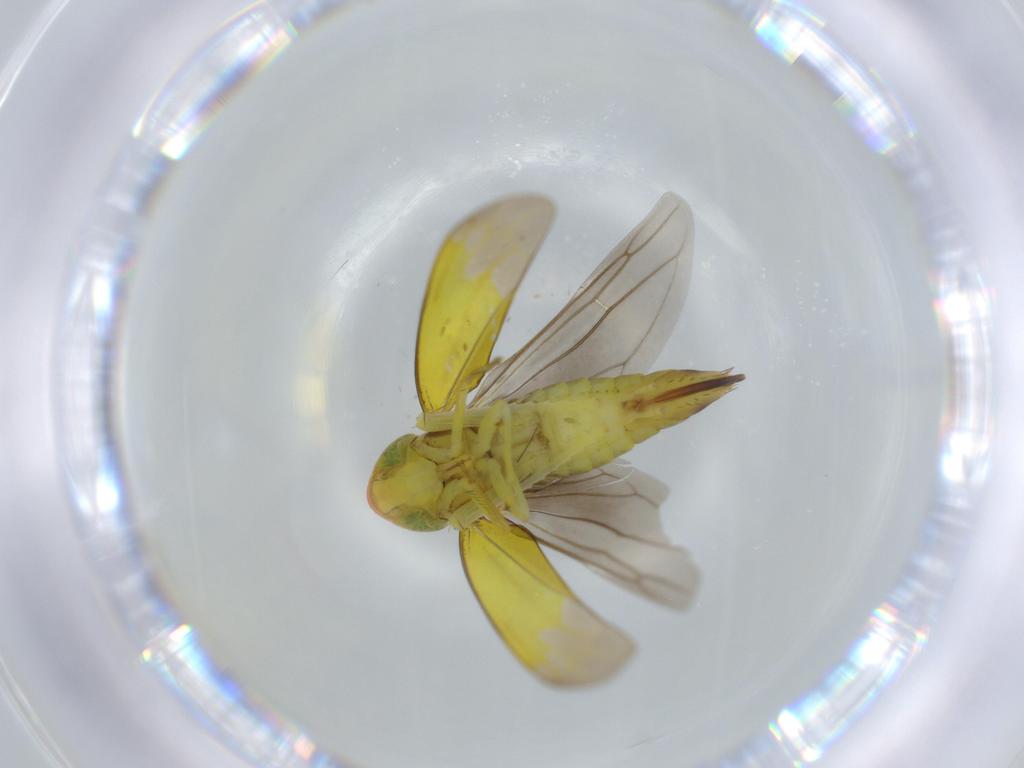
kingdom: Animalia
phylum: Arthropoda
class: Insecta
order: Hemiptera
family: Cicadellidae
